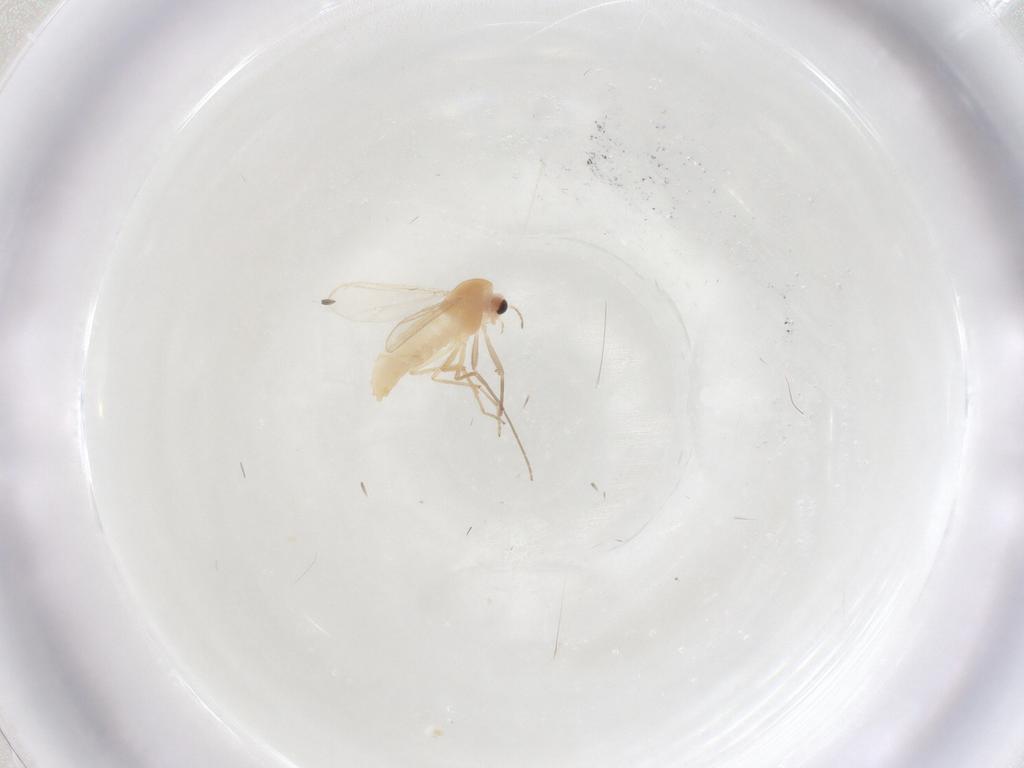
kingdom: Animalia
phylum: Arthropoda
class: Insecta
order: Diptera
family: Chironomidae
